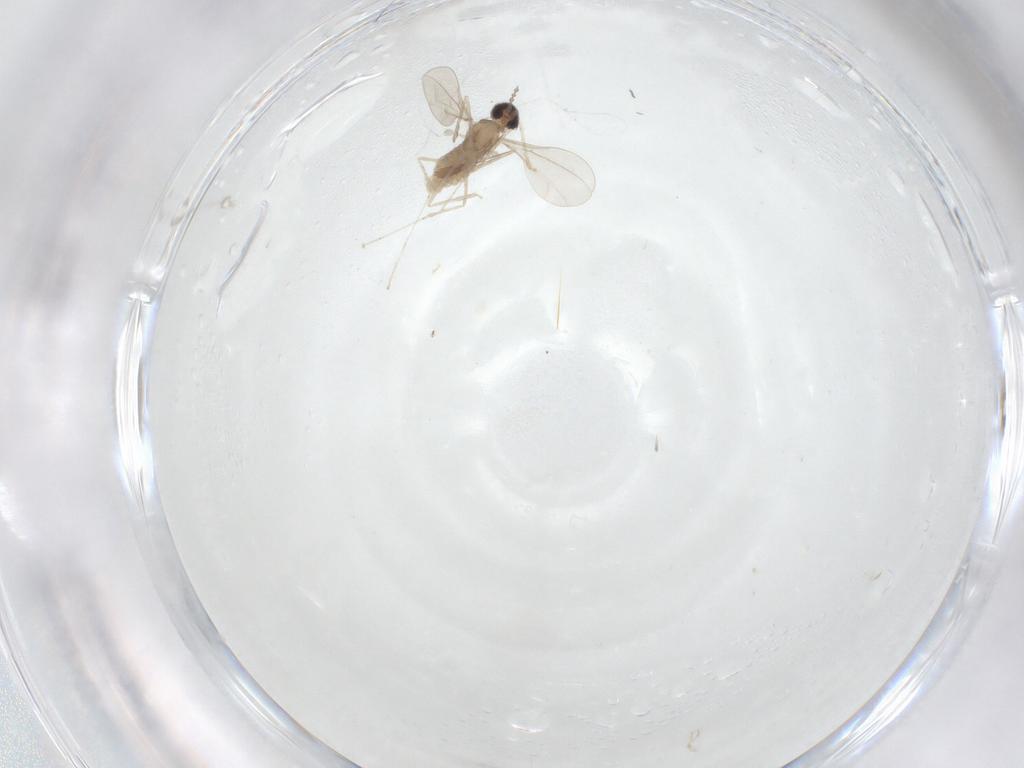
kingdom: Animalia
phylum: Arthropoda
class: Insecta
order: Diptera
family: Cecidomyiidae
